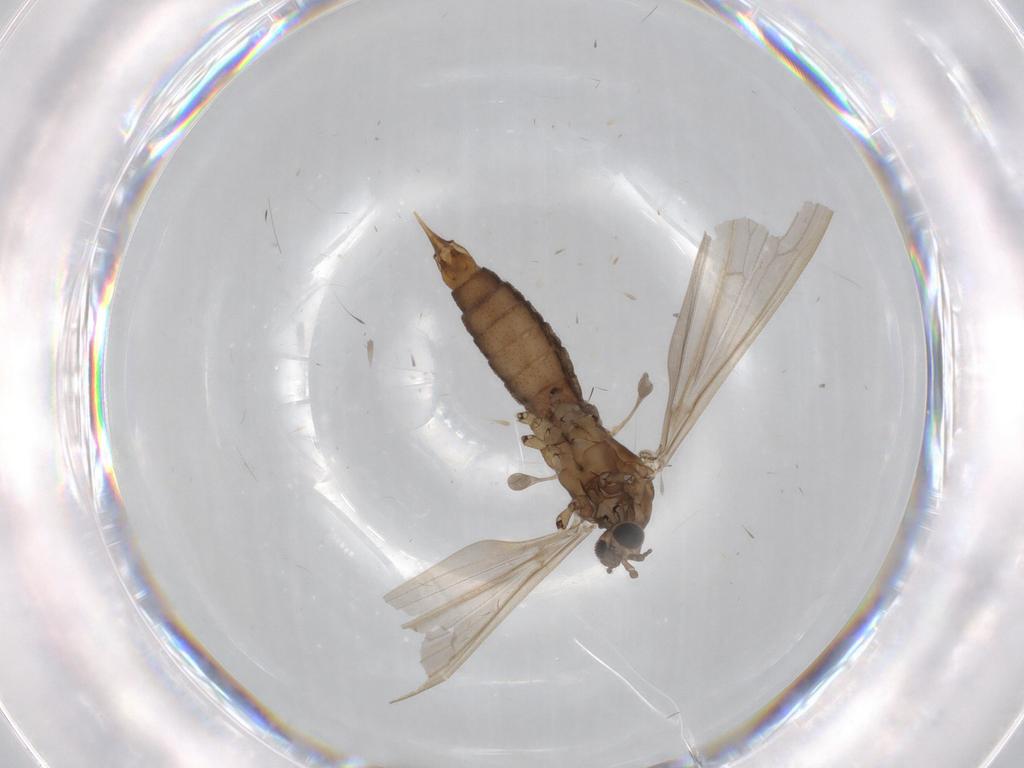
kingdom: Animalia
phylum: Arthropoda
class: Insecta
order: Diptera
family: Limoniidae
